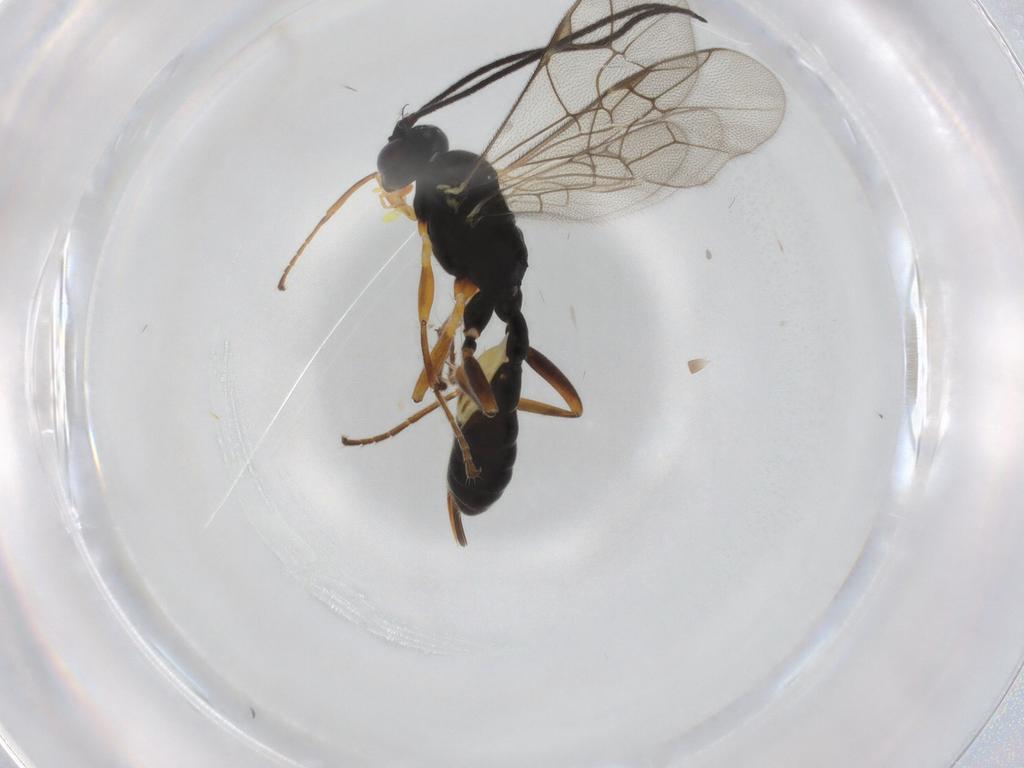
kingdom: Animalia
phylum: Arthropoda
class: Insecta
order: Hymenoptera
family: Ichneumonidae
